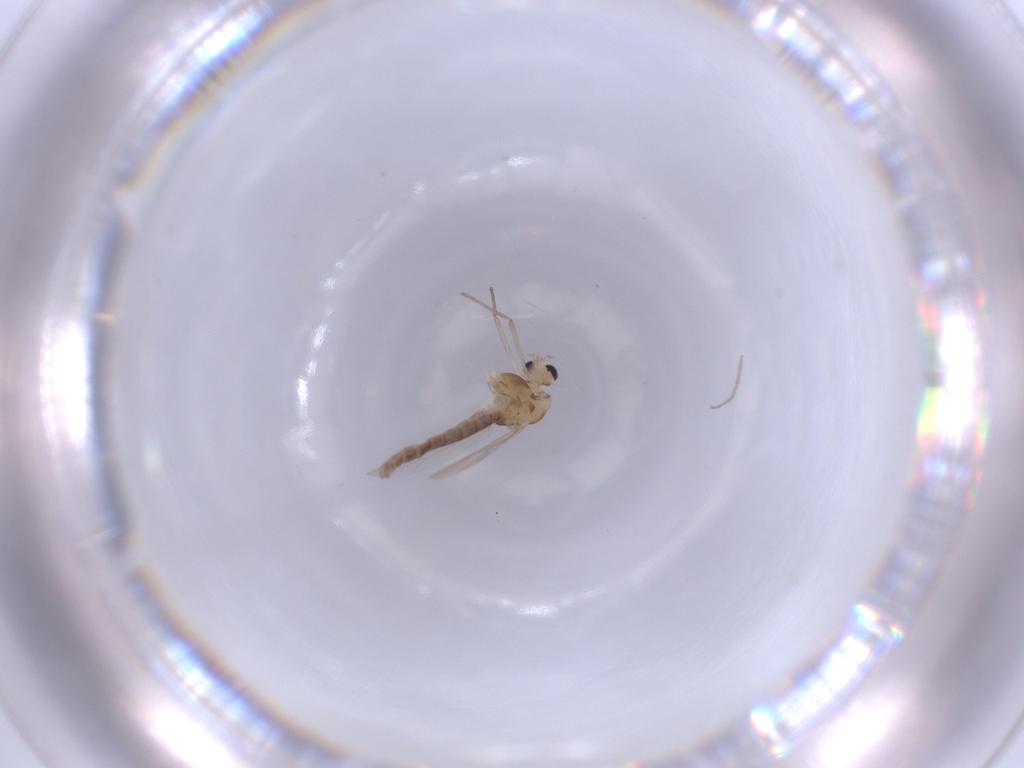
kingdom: Animalia
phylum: Arthropoda
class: Insecta
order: Diptera
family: Chironomidae
